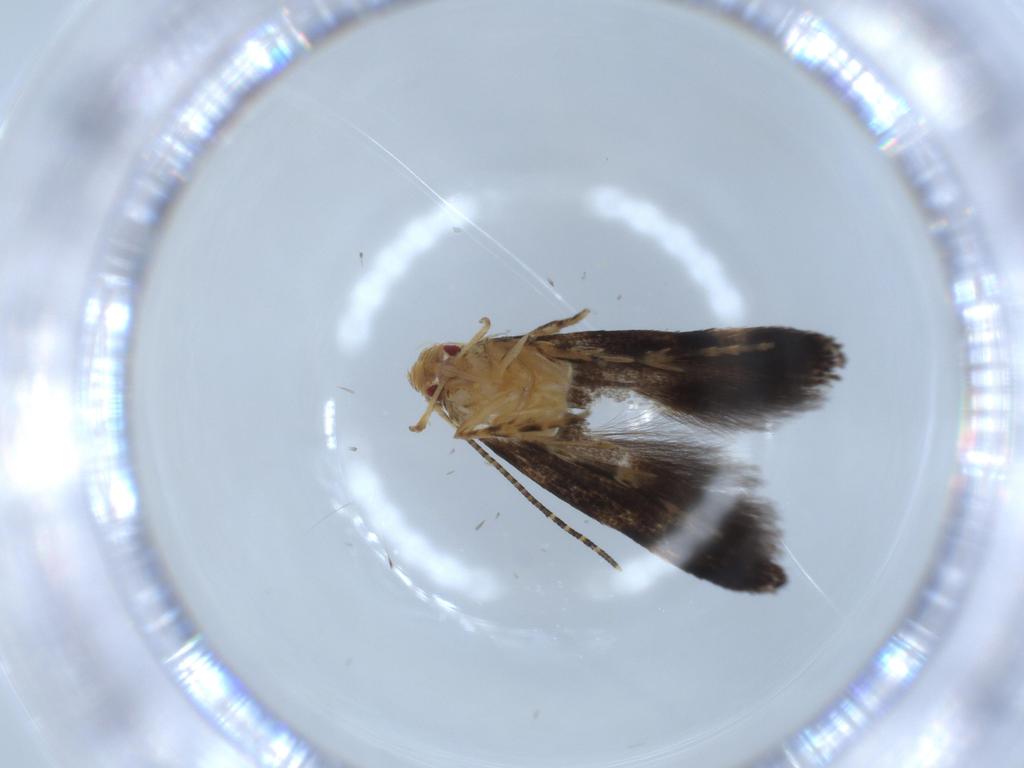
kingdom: Animalia
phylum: Arthropoda
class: Insecta
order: Lepidoptera
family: Momphidae
